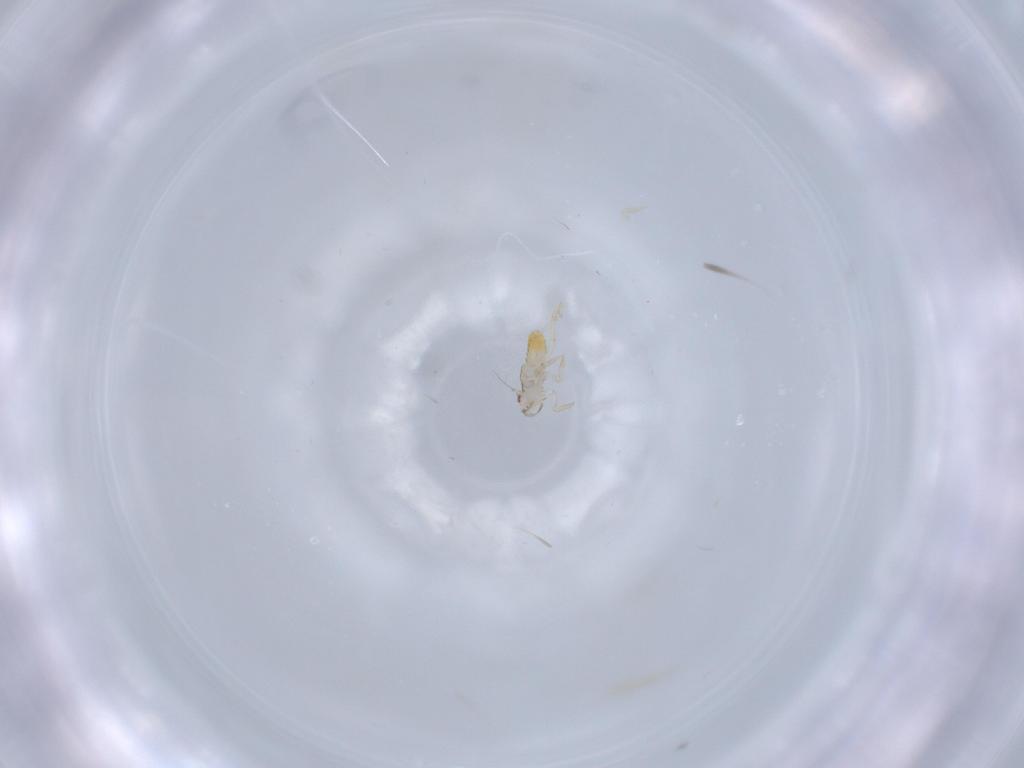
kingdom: Animalia
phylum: Arthropoda
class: Insecta
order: Hemiptera
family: Delphacidae
